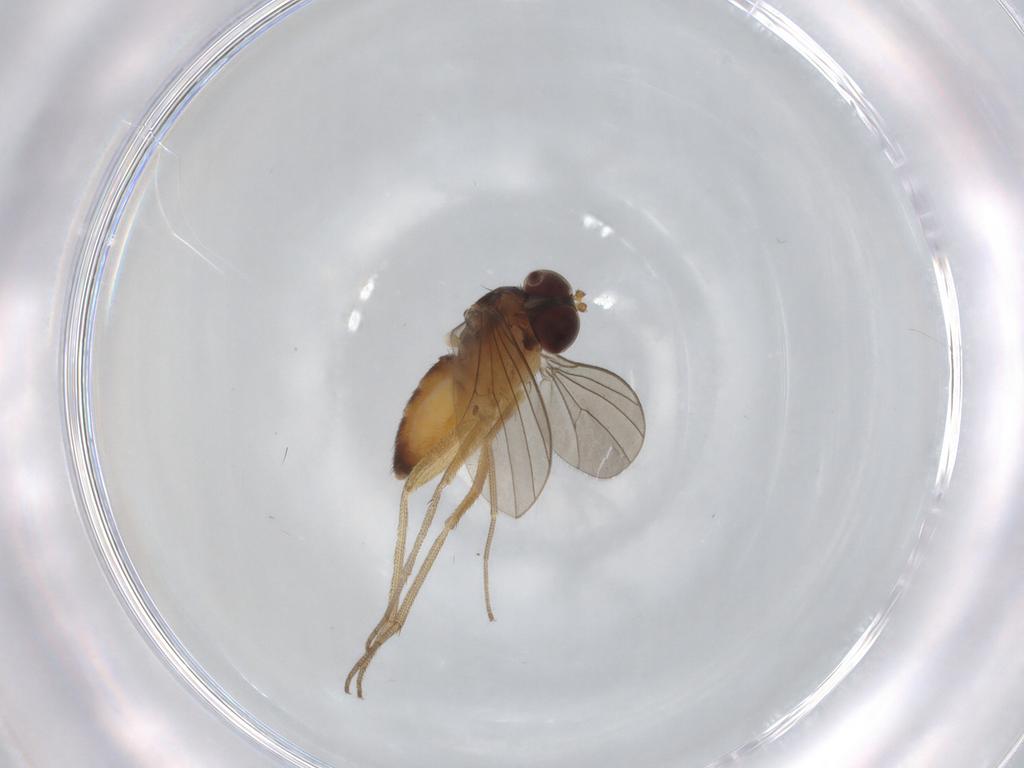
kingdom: Animalia
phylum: Arthropoda
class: Insecta
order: Diptera
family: Dolichopodidae
